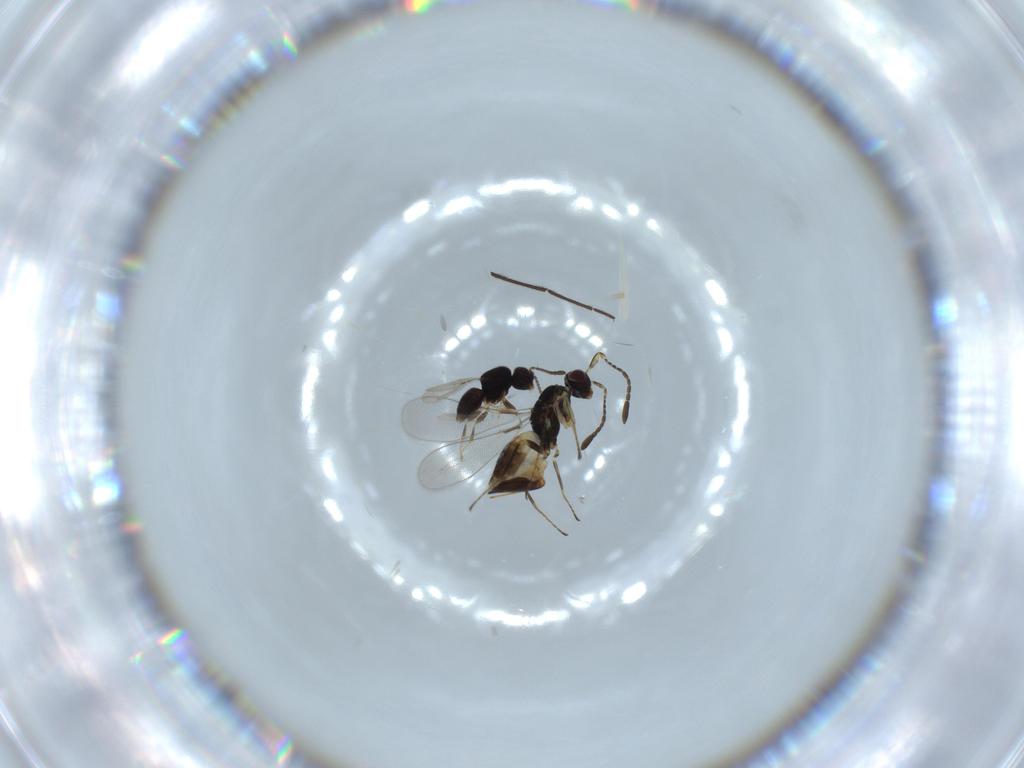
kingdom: Animalia
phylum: Arthropoda
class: Insecta
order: Hymenoptera
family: Mymaridae
